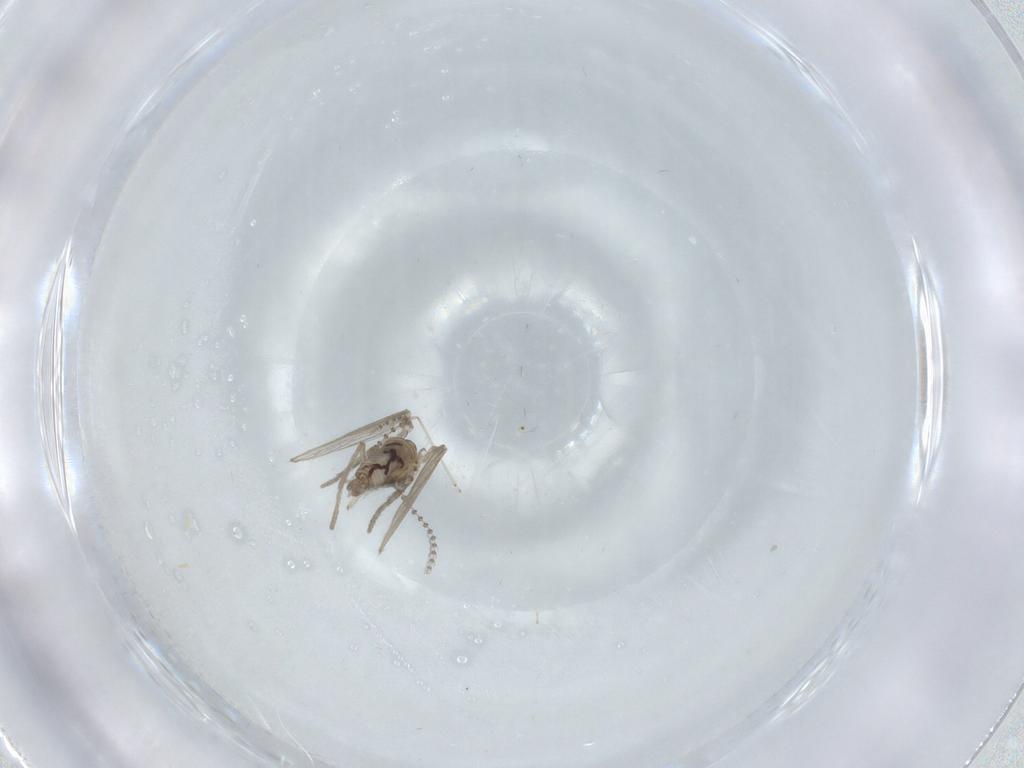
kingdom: Animalia
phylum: Arthropoda
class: Insecta
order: Diptera
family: Psychodidae
